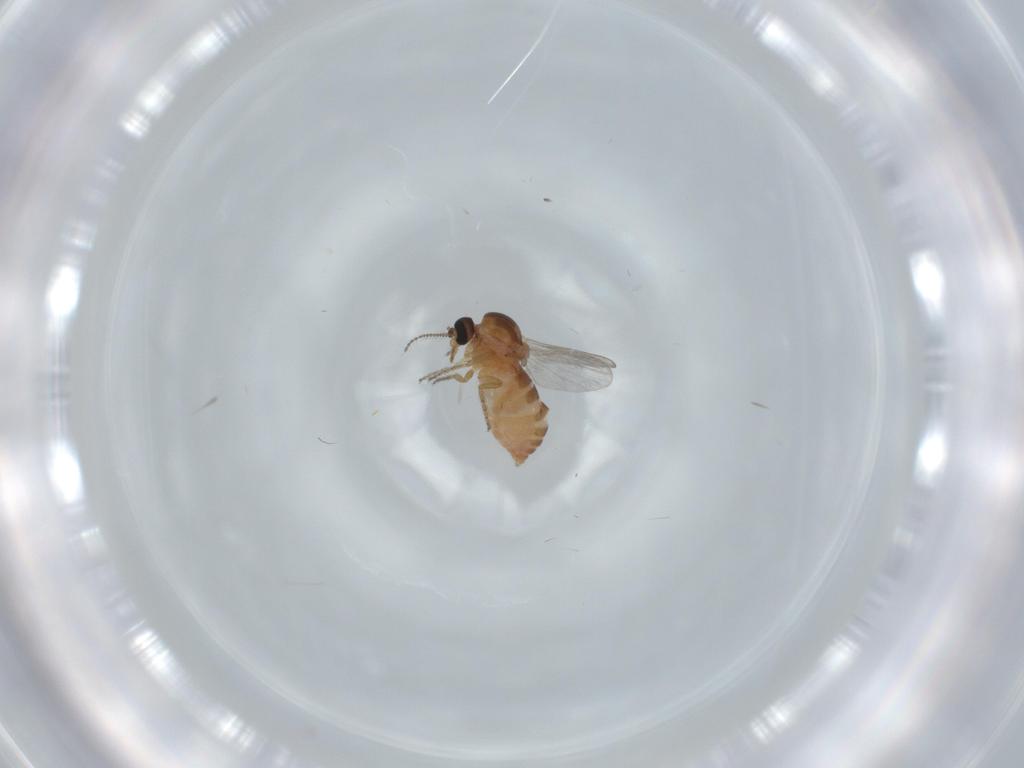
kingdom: Animalia
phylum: Arthropoda
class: Insecta
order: Diptera
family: Ceratopogonidae
